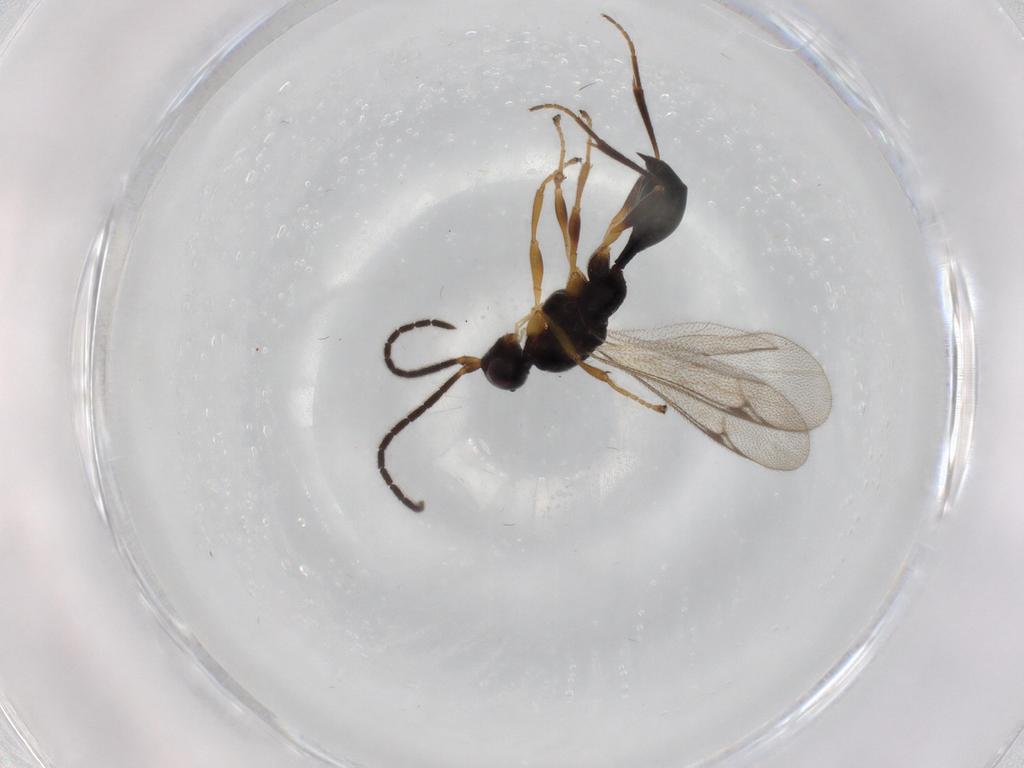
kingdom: Animalia
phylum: Arthropoda
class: Insecta
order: Hymenoptera
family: Proctotrupidae
